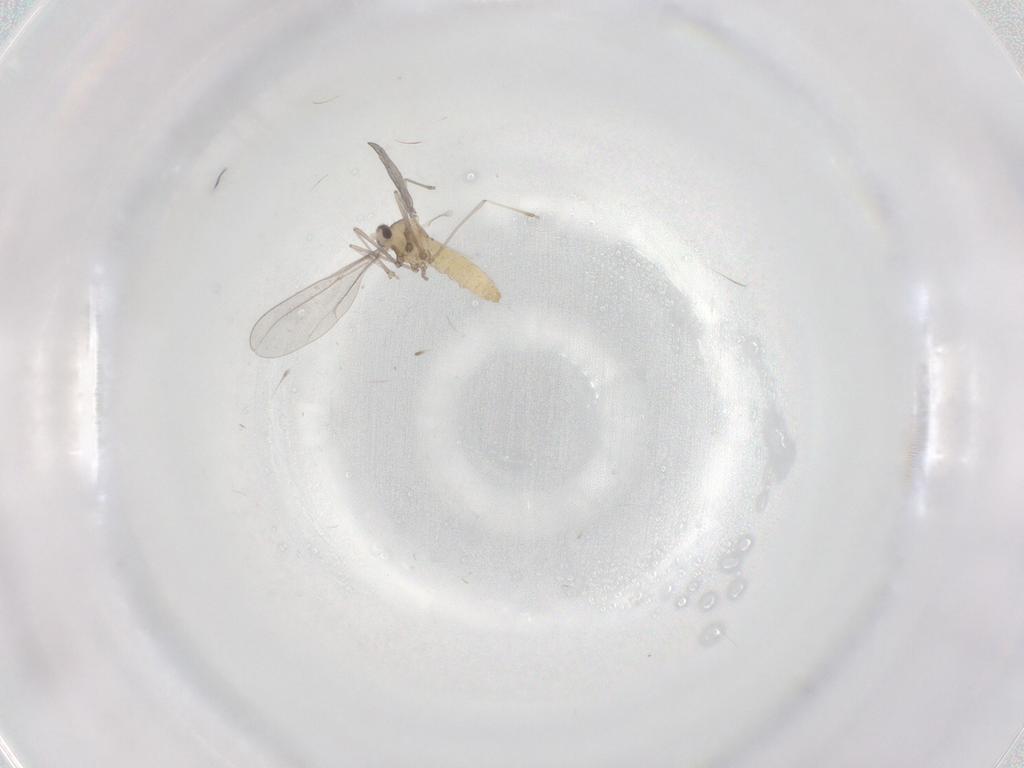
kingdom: Animalia
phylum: Arthropoda
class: Insecta
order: Diptera
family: Cecidomyiidae
